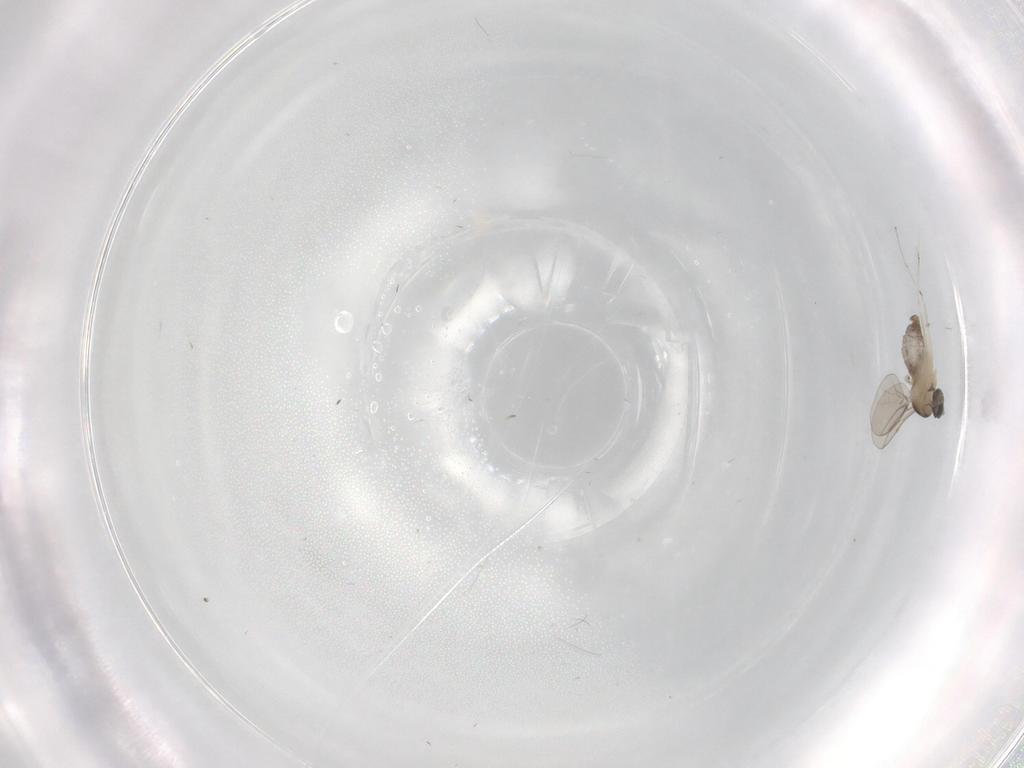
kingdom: Animalia
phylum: Arthropoda
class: Insecta
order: Diptera
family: Cecidomyiidae
